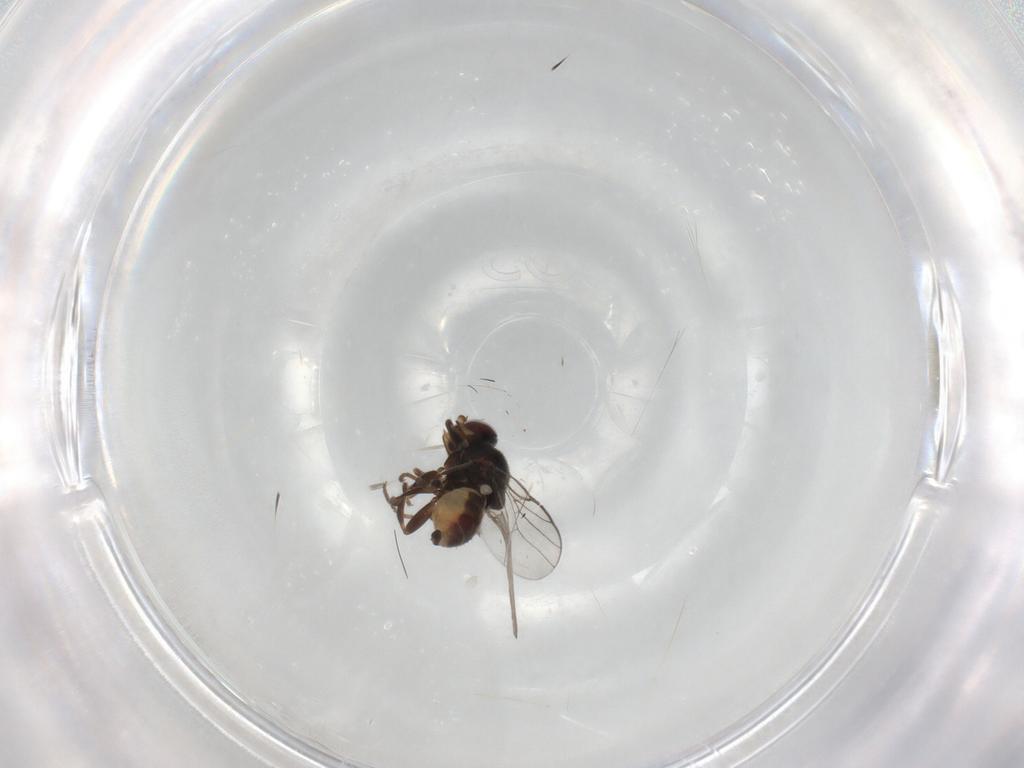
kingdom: Animalia
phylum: Arthropoda
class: Insecta
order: Diptera
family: Chloropidae
